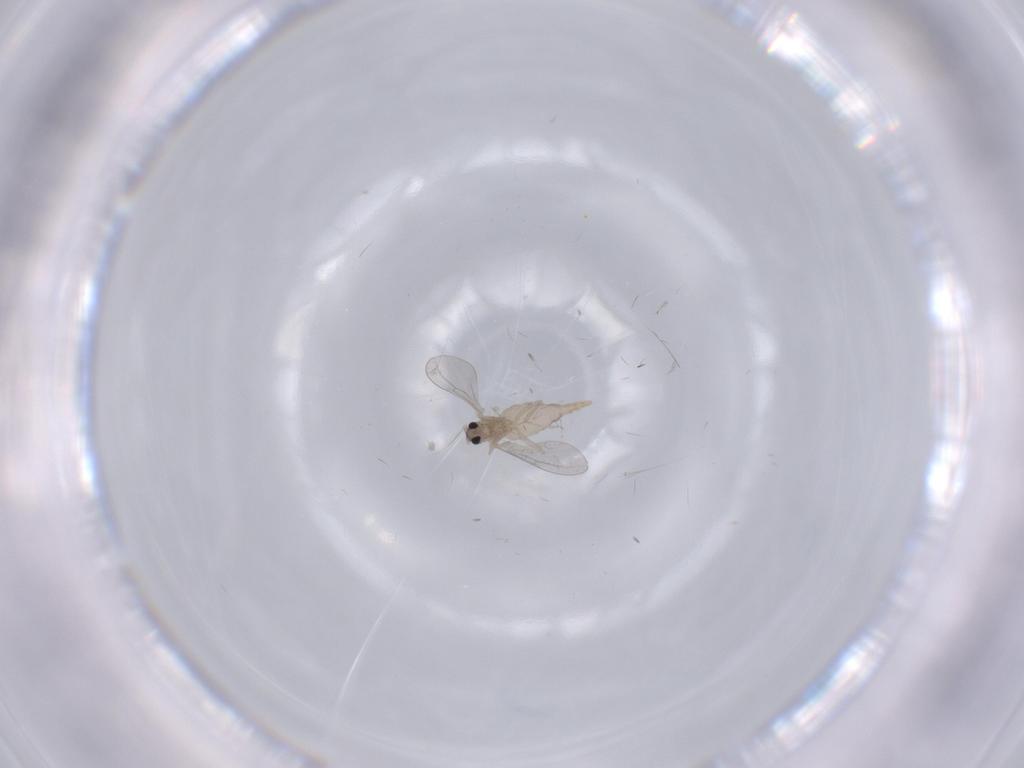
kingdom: Animalia
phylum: Arthropoda
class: Insecta
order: Diptera
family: Cecidomyiidae
